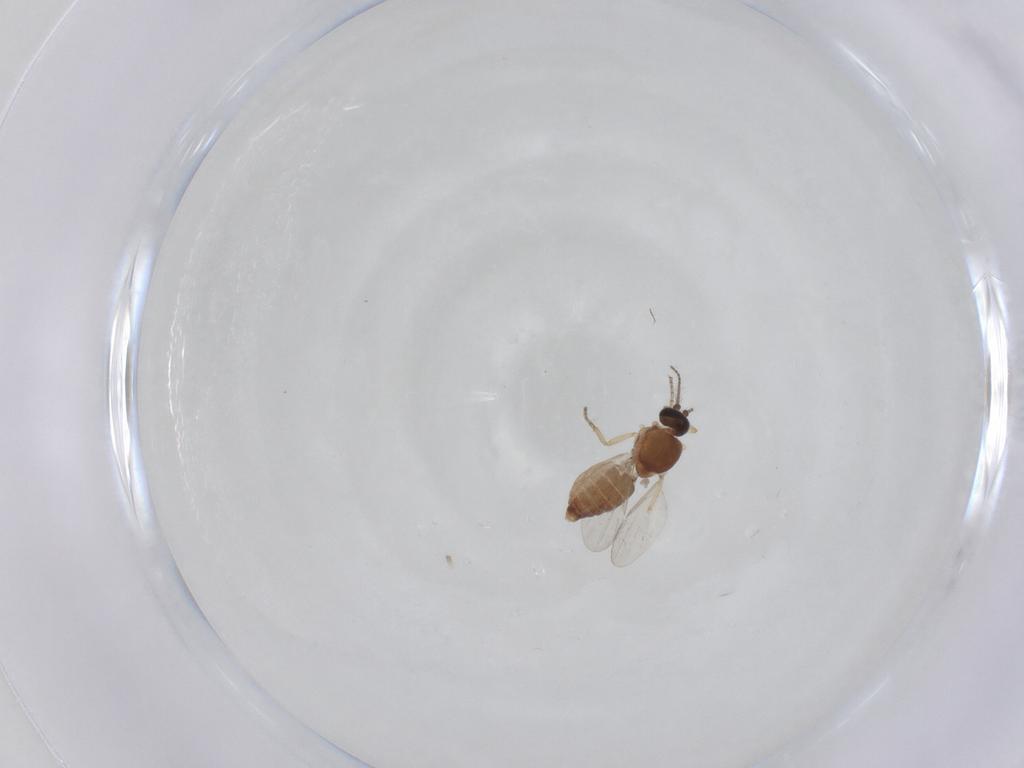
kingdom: Animalia
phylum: Arthropoda
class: Insecta
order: Diptera
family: Ceratopogonidae
